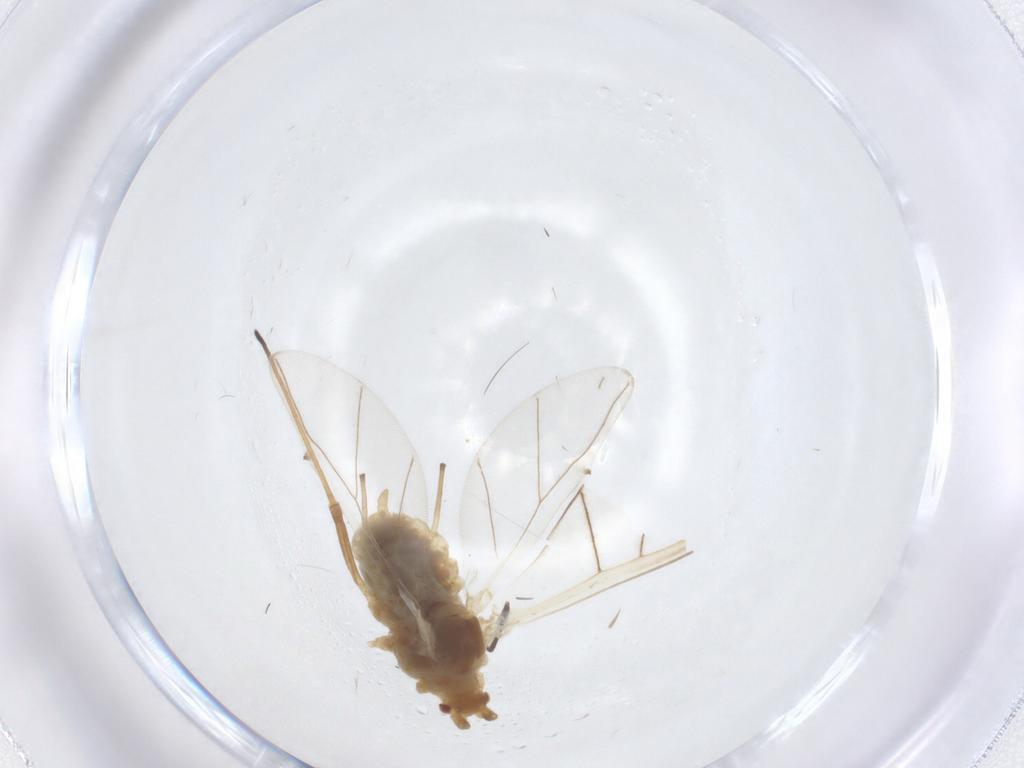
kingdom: Animalia
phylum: Arthropoda
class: Insecta
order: Hemiptera
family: Aphididae
